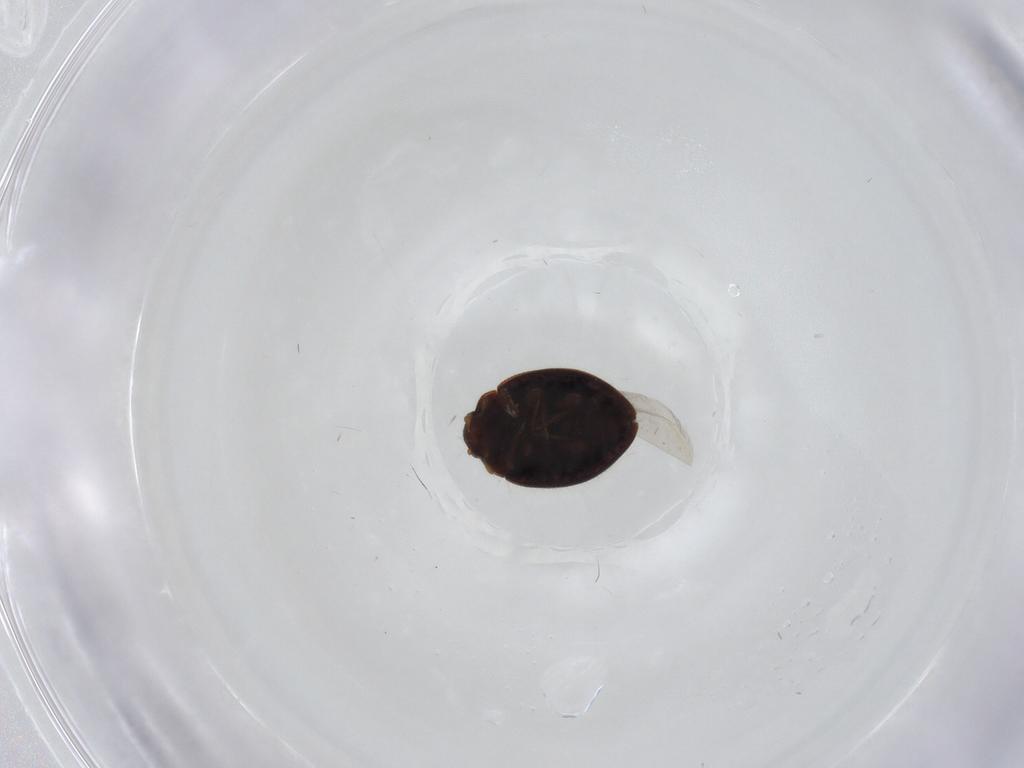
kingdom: Animalia
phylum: Arthropoda
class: Insecta
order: Coleoptera
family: Coccinellidae
